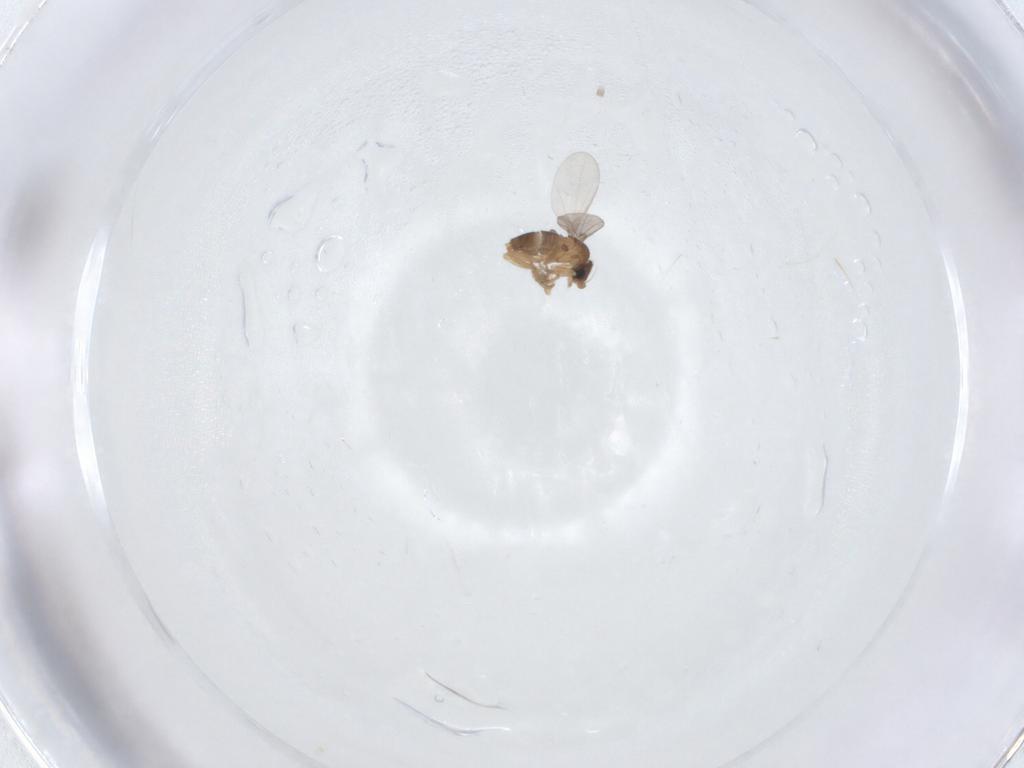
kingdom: Animalia
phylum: Arthropoda
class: Insecta
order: Diptera
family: Phoridae
